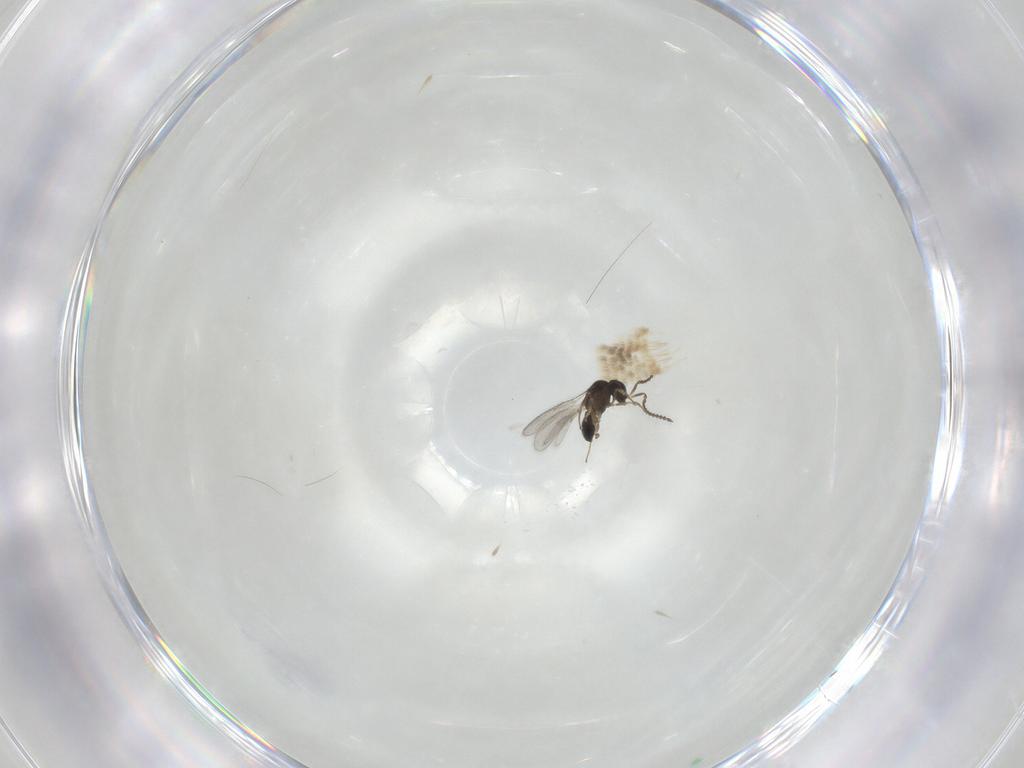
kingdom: Animalia
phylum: Arthropoda
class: Insecta
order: Hymenoptera
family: Scelionidae
